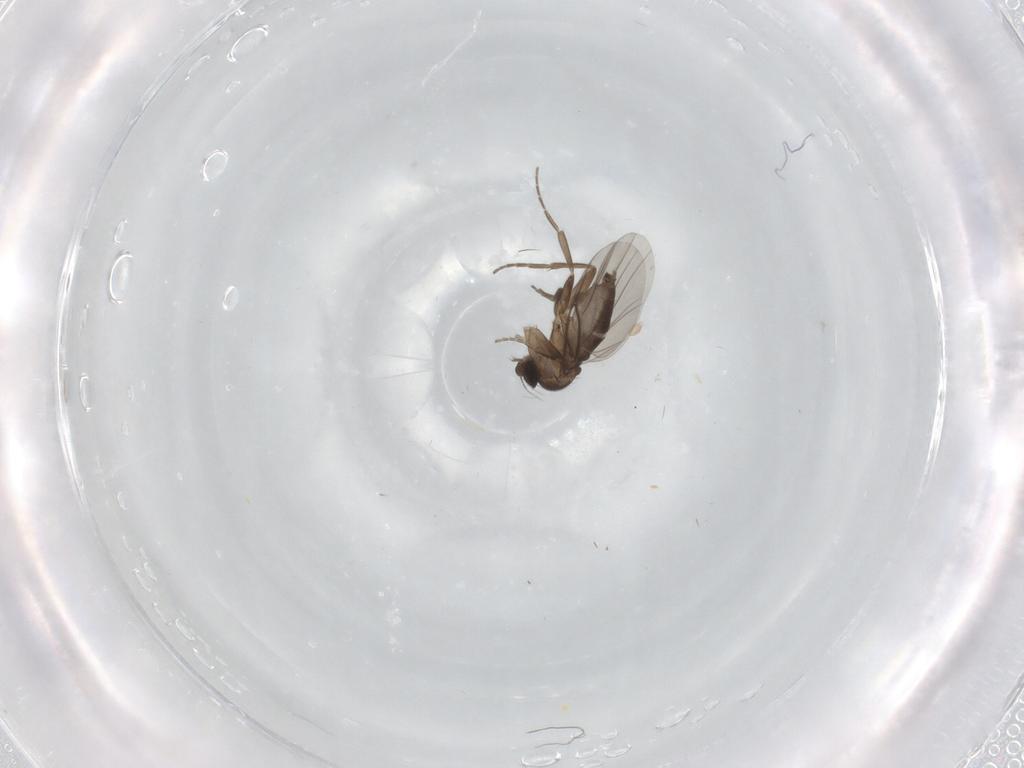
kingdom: Animalia
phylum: Arthropoda
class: Insecta
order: Diptera
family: Phoridae
